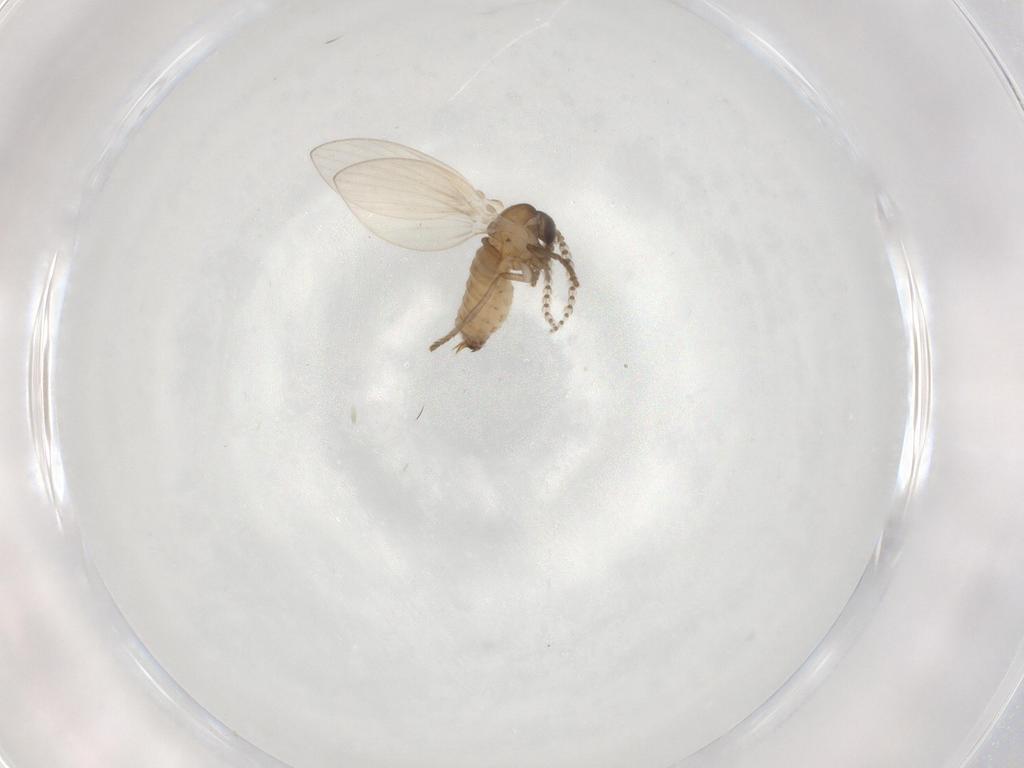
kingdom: Animalia
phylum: Arthropoda
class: Insecta
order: Diptera
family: Psychodidae
